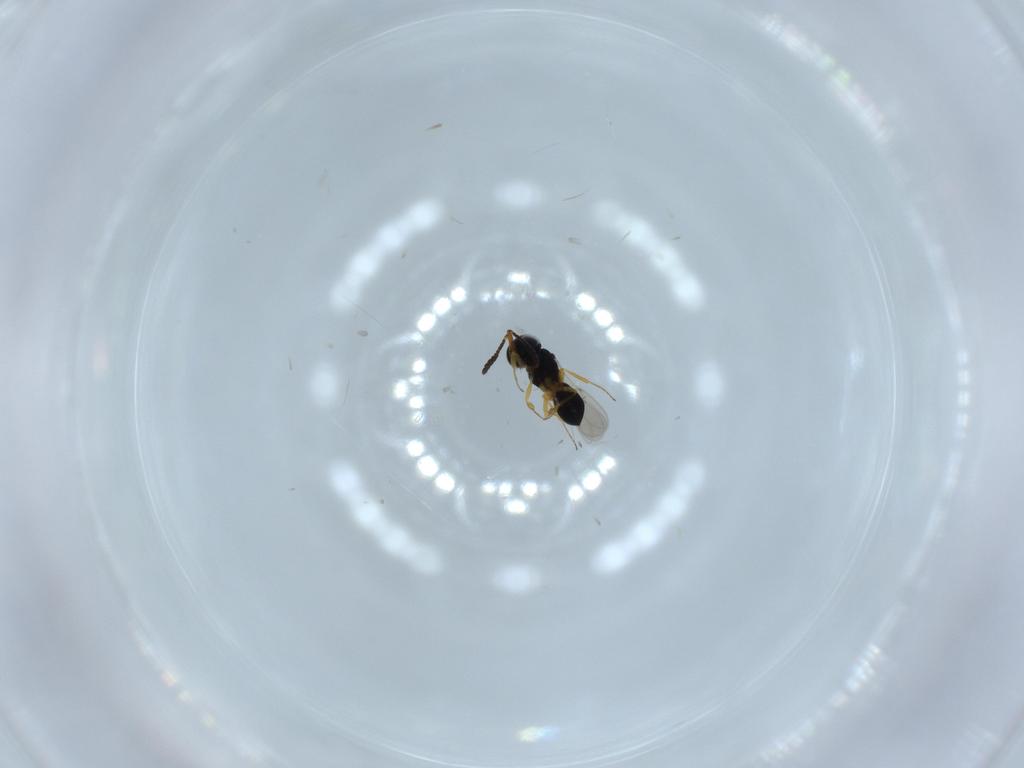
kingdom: Animalia
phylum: Arthropoda
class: Insecta
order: Hymenoptera
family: Scelionidae
